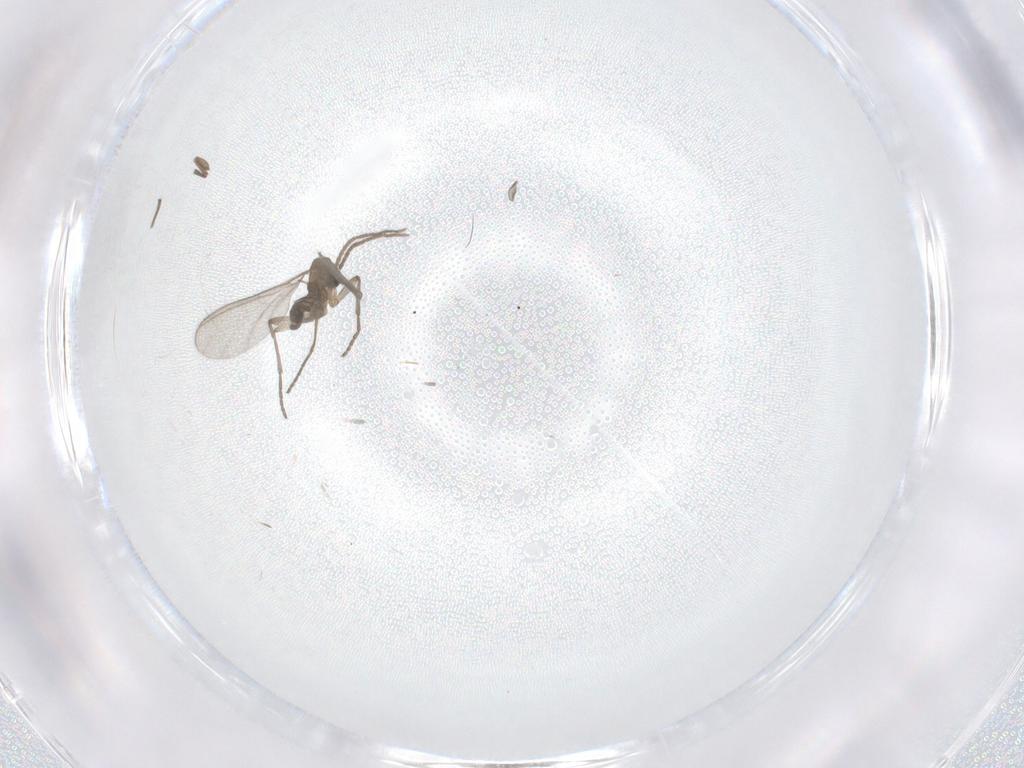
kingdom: Animalia
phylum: Arthropoda
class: Insecta
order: Diptera
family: Sciaridae
